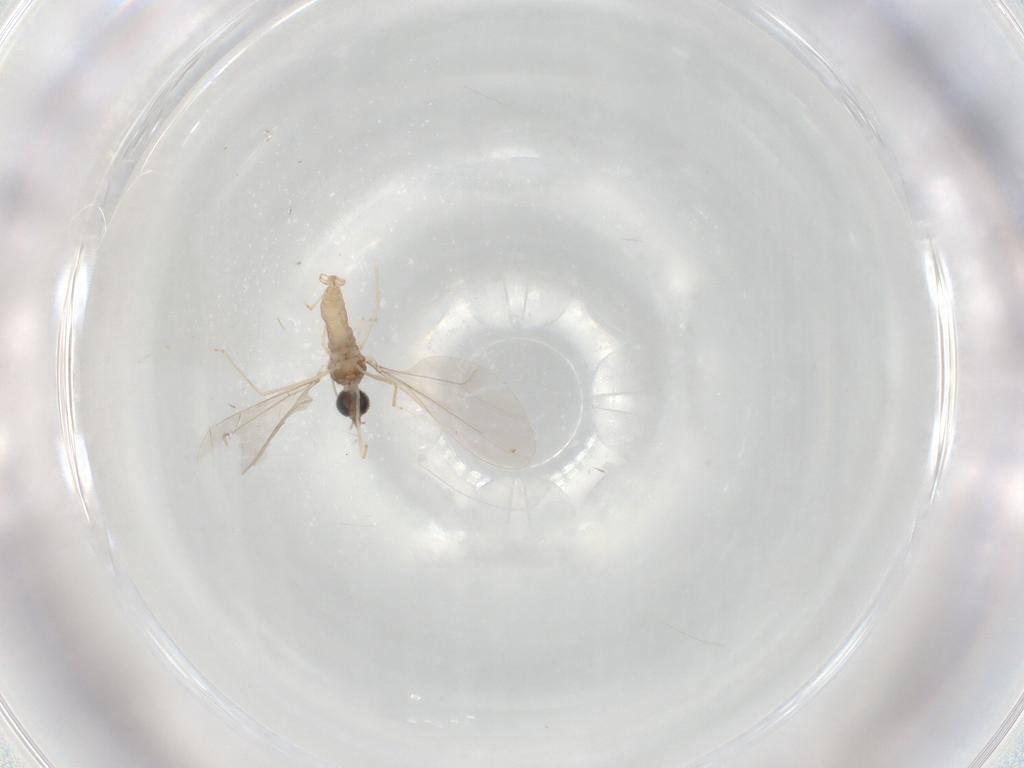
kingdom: Animalia
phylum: Arthropoda
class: Insecta
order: Diptera
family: Cecidomyiidae
